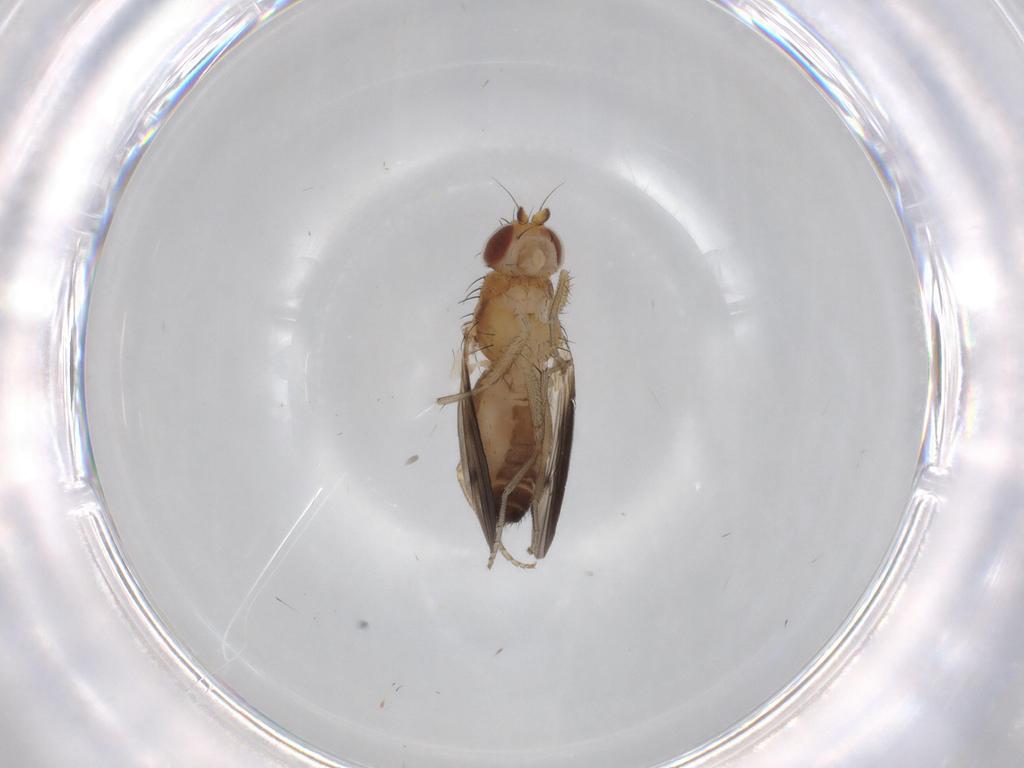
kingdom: Animalia
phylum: Arthropoda
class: Insecta
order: Diptera
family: Heleomyzidae
